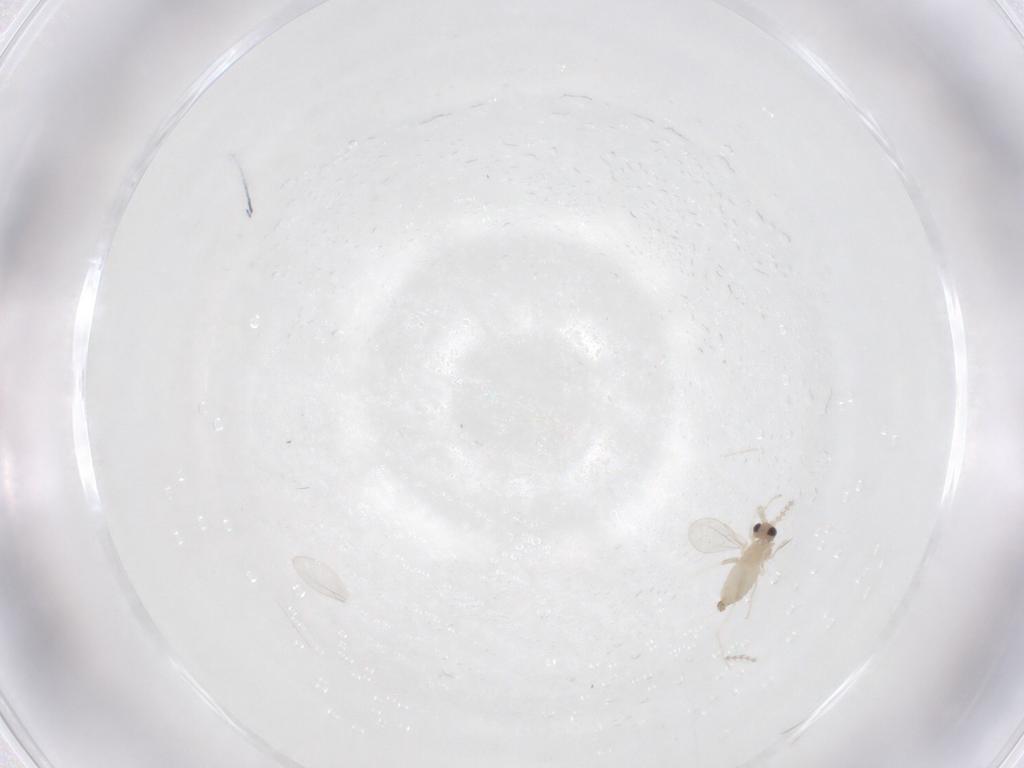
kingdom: Animalia
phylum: Arthropoda
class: Insecta
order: Diptera
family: Cecidomyiidae
